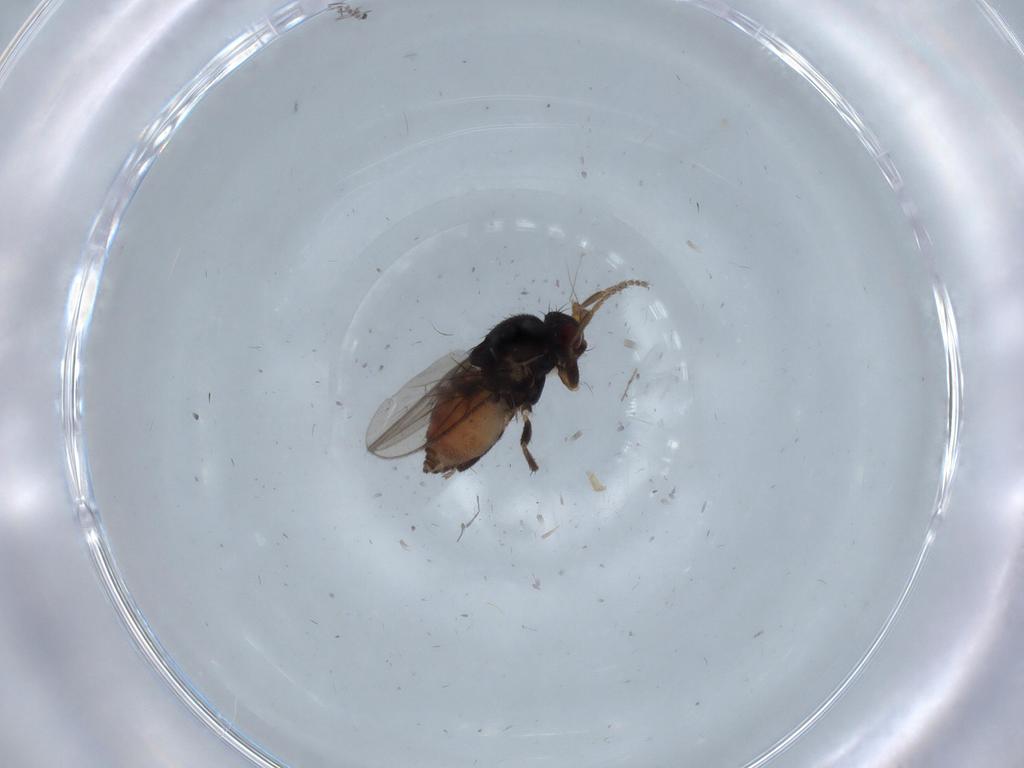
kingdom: Animalia
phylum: Arthropoda
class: Insecta
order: Diptera
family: Sphaeroceridae
